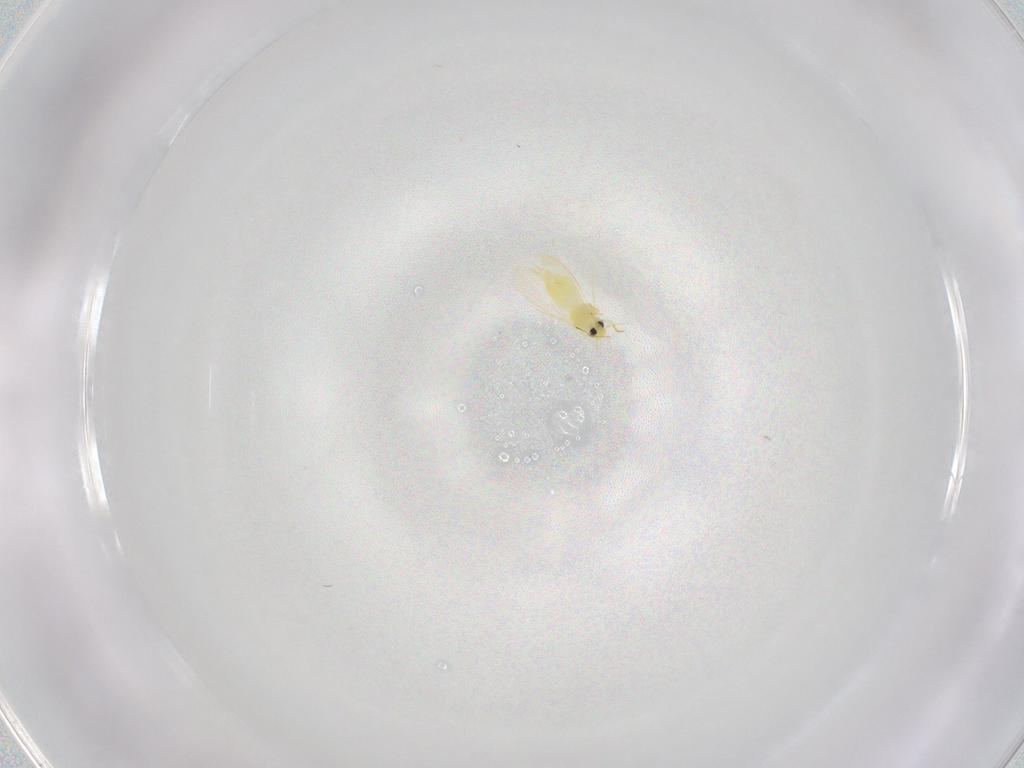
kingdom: Animalia
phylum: Arthropoda
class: Insecta
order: Hemiptera
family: Aleyrodidae
